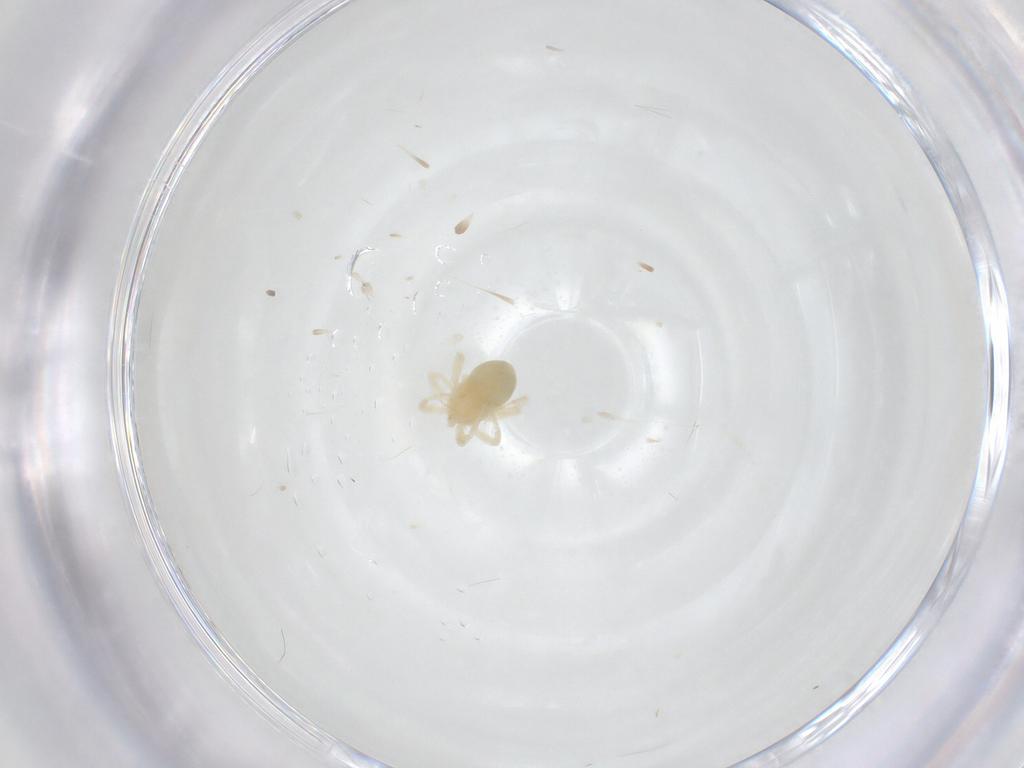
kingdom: Animalia
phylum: Arthropoda
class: Arachnida
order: Trombidiformes
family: Anystidae
